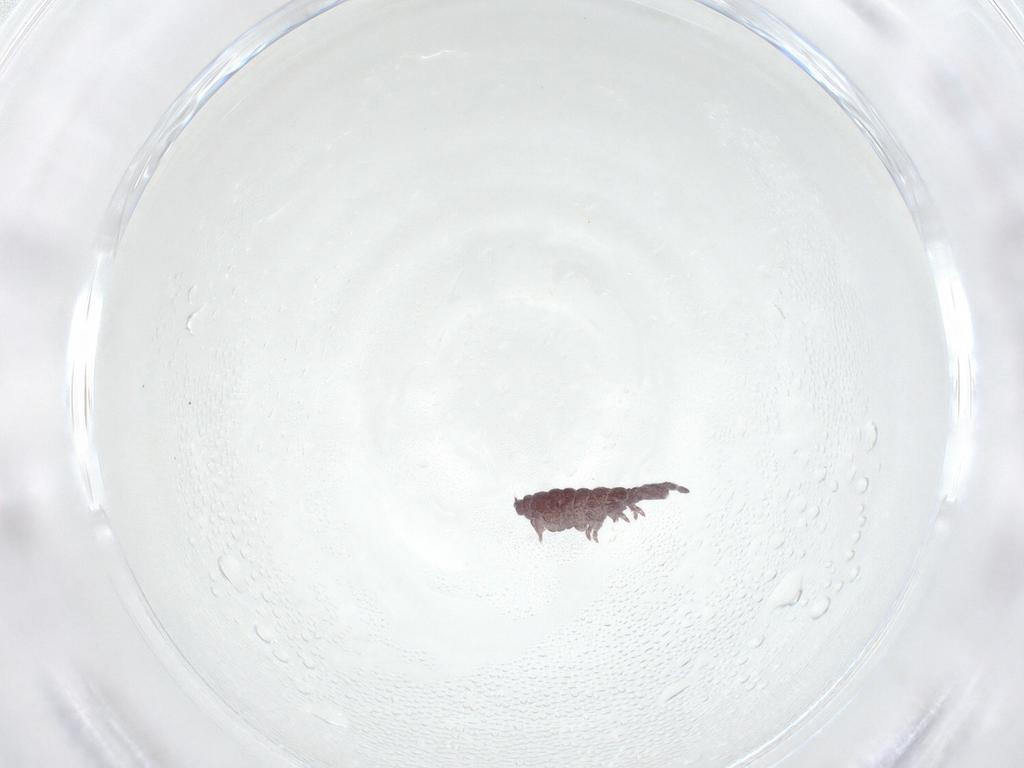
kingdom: Animalia
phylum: Arthropoda
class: Collembola
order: Poduromorpha
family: Hypogastruridae
